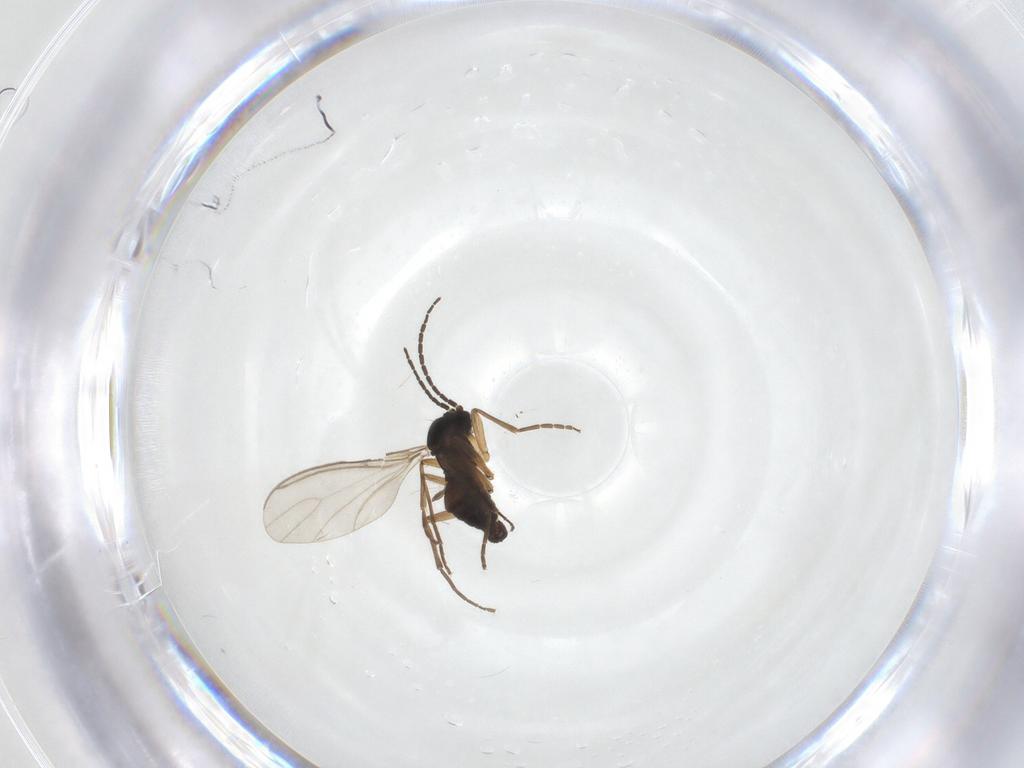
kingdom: Animalia
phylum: Arthropoda
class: Insecta
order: Diptera
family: Sciaridae
